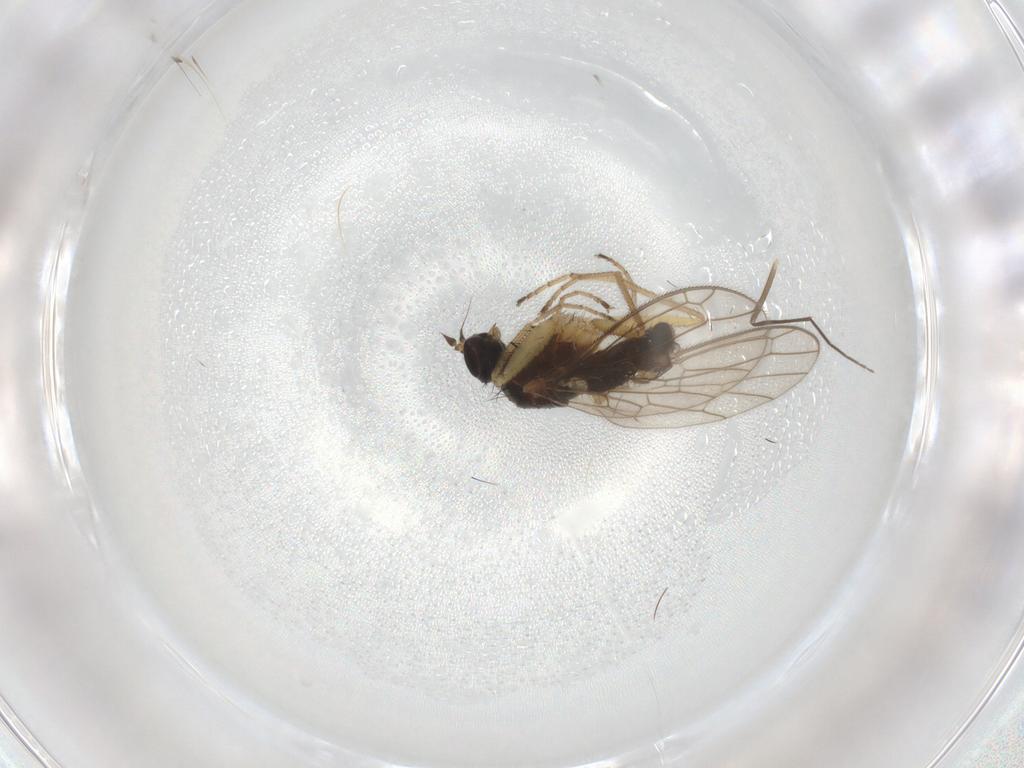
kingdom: Animalia
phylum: Arthropoda
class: Insecta
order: Diptera
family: Chironomidae
